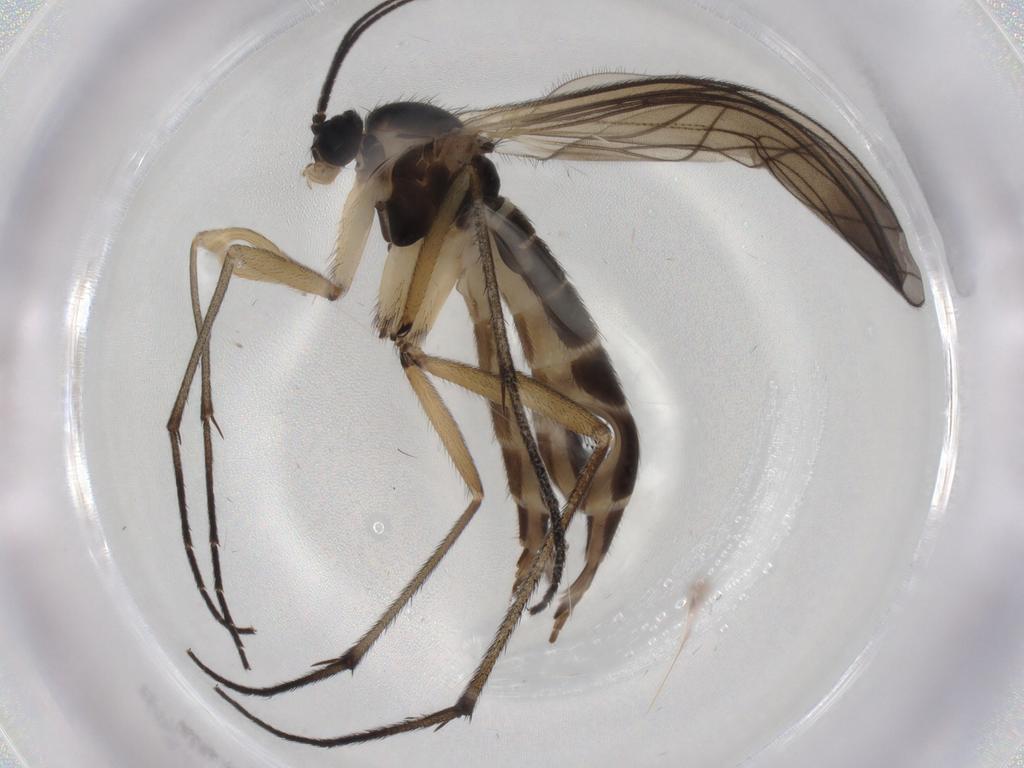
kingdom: Animalia
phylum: Arthropoda
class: Insecta
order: Diptera
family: Sciaridae
